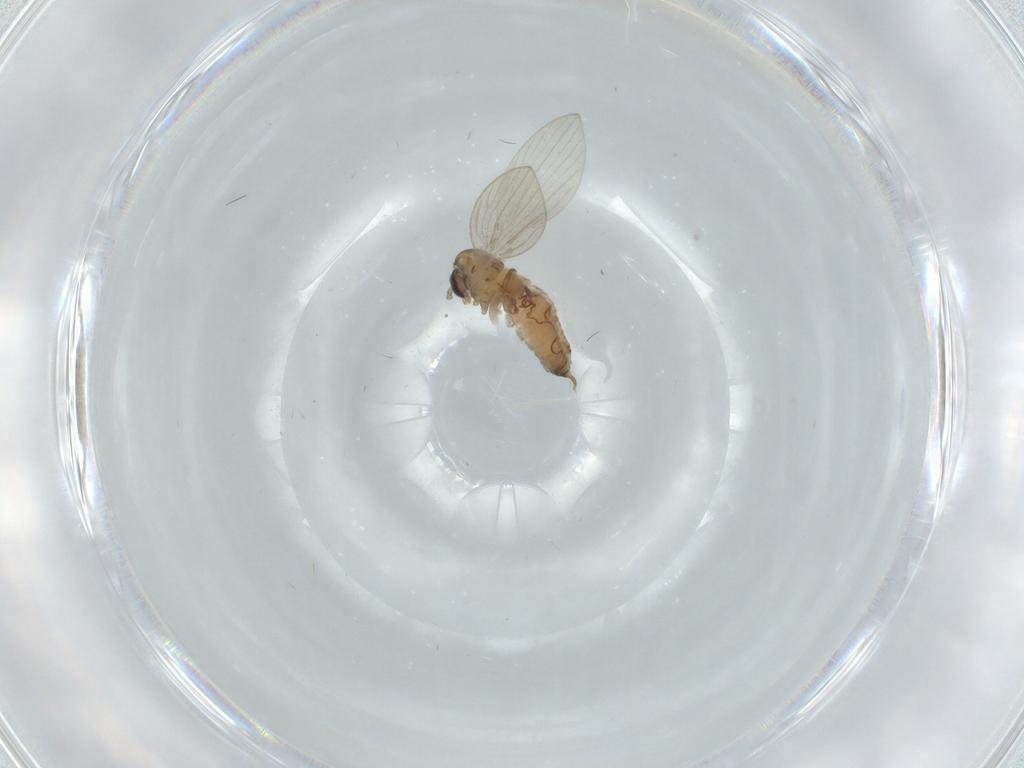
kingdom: Animalia
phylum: Arthropoda
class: Insecta
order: Diptera
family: Psychodidae
